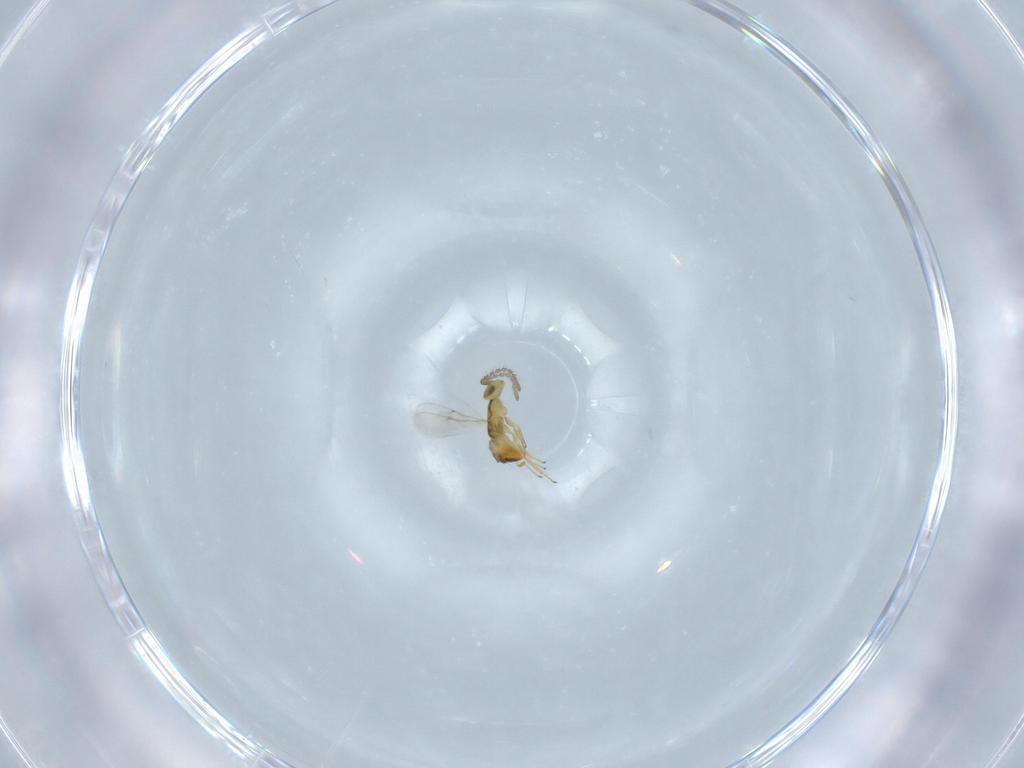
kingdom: Animalia
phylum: Arthropoda
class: Insecta
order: Hymenoptera
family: Encyrtidae
